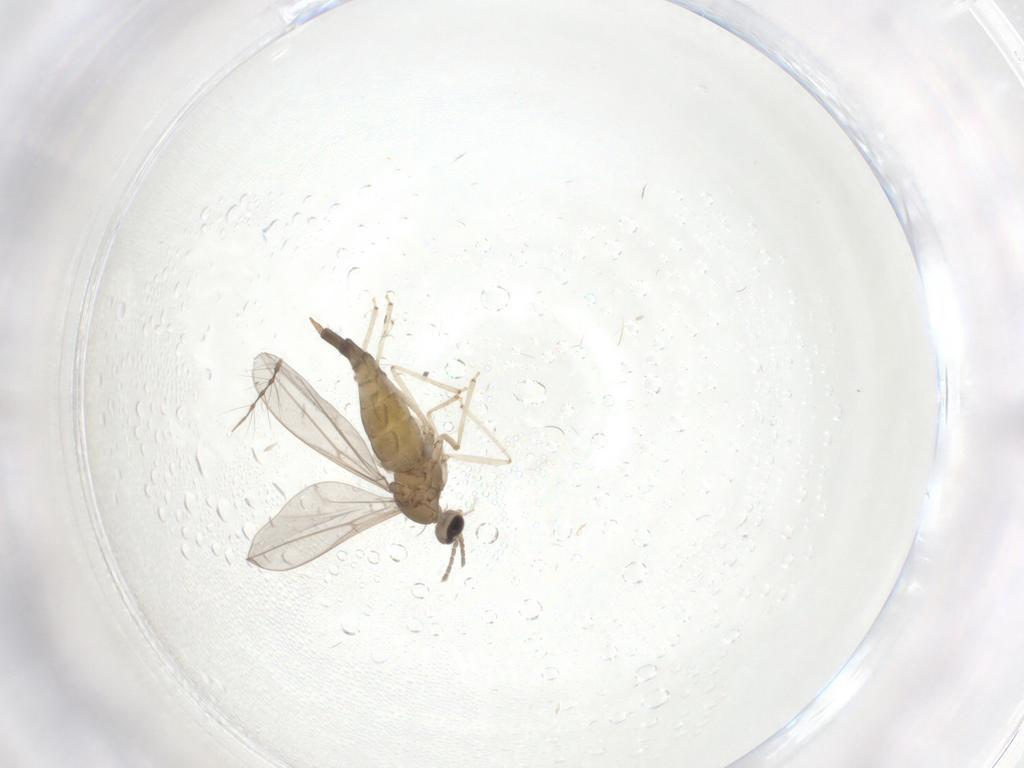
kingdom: Animalia
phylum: Arthropoda
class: Insecta
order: Diptera
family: Cecidomyiidae
